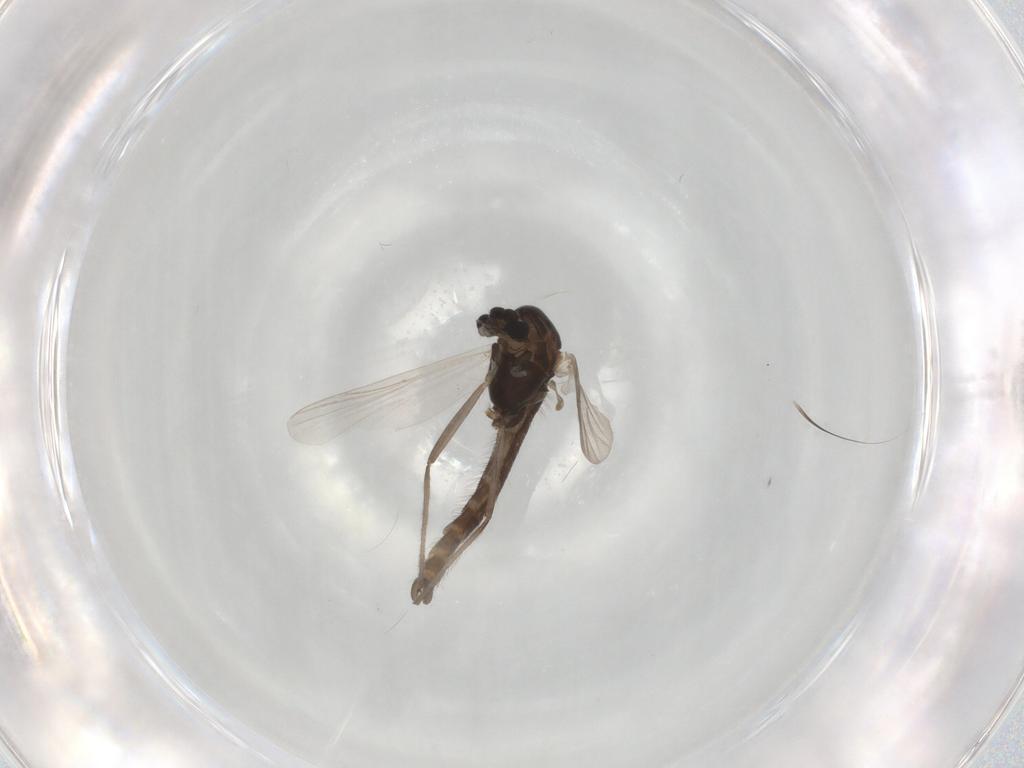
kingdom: Animalia
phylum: Arthropoda
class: Insecta
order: Diptera
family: Chironomidae
